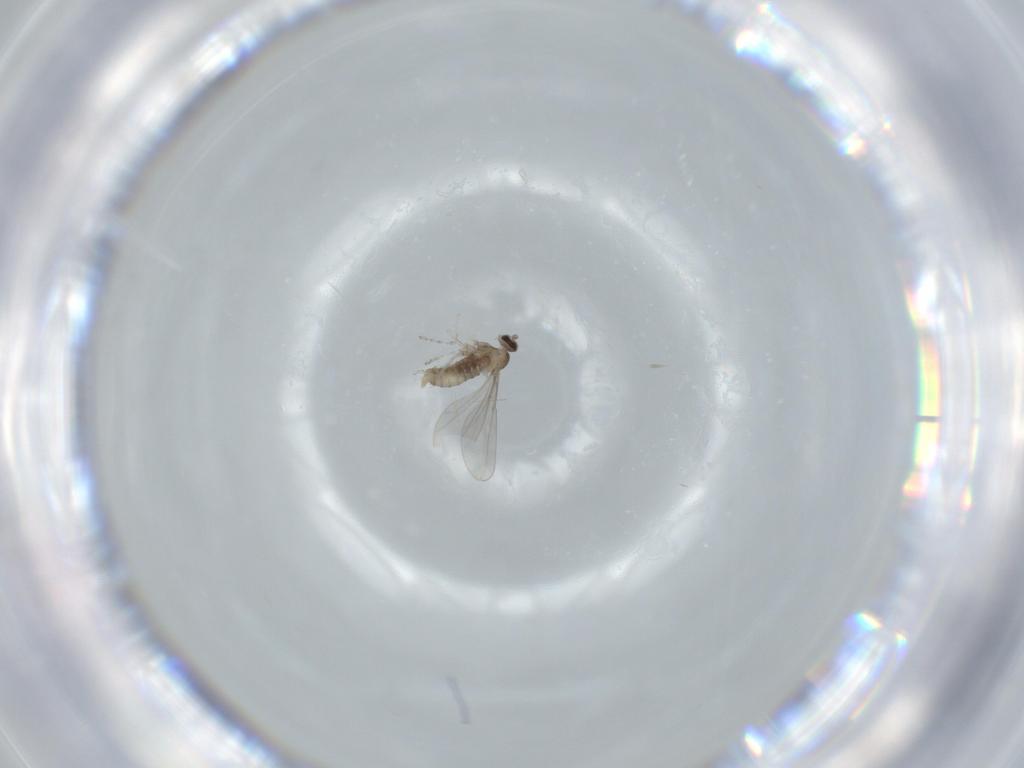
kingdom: Animalia
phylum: Arthropoda
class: Insecta
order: Diptera
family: Cecidomyiidae
